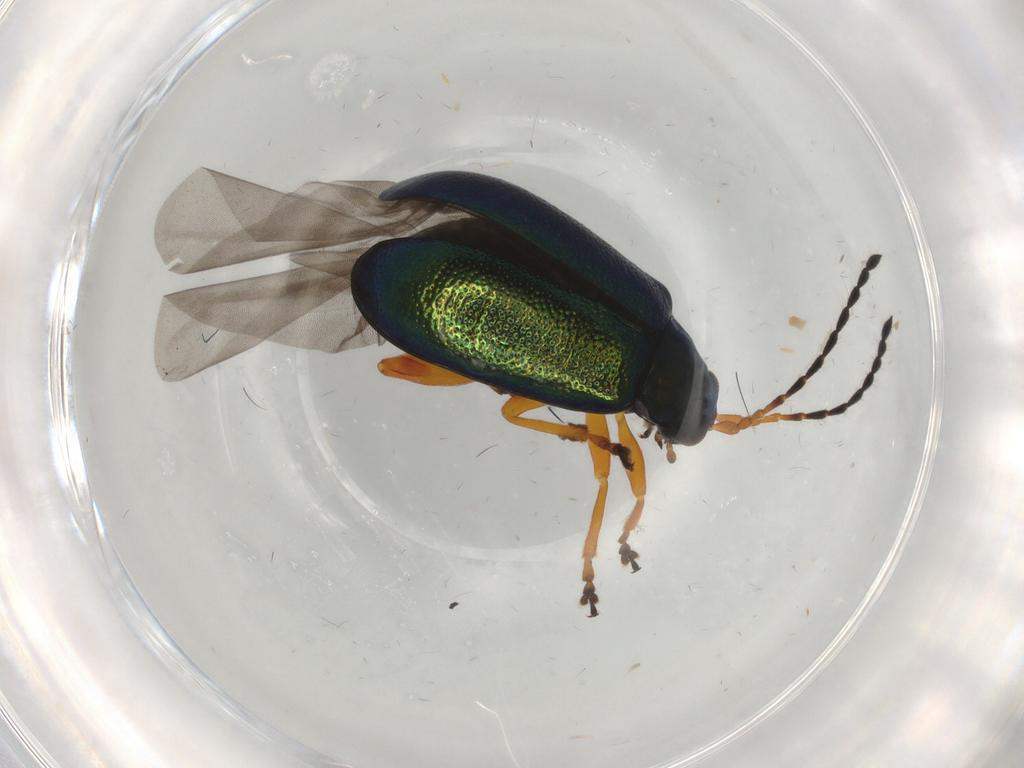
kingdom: Animalia
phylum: Arthropoda
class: Insecta
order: Coleoptera
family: Chrysomelidae
